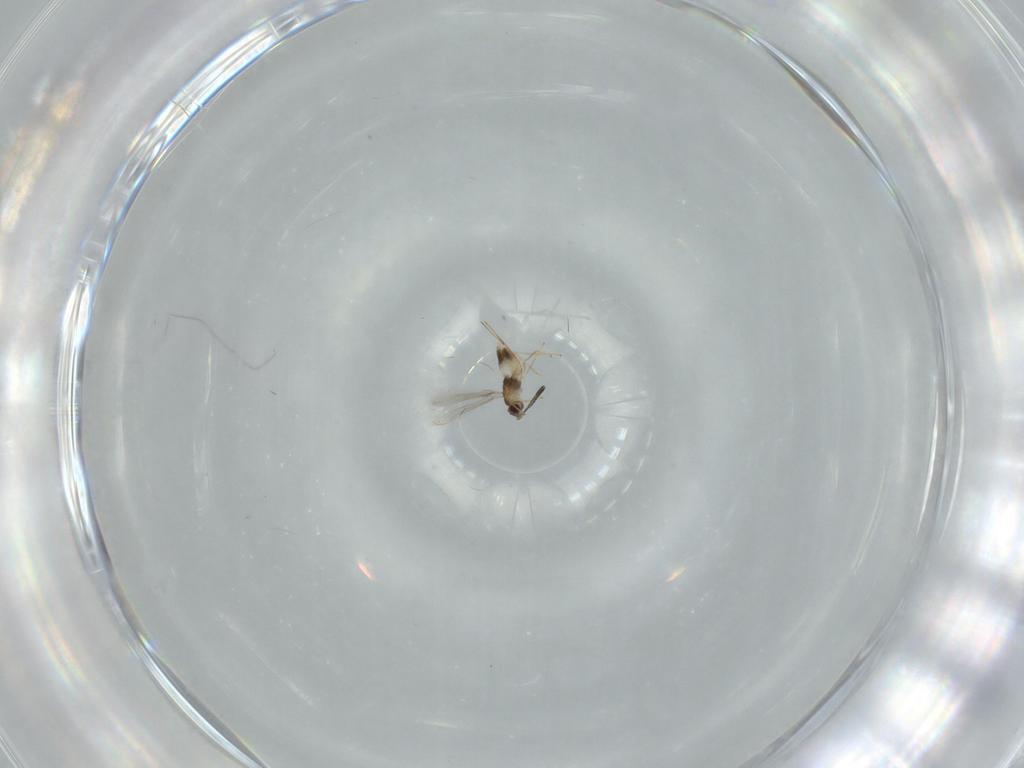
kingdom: Animalia
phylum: Arthropoda
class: Insecta
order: Hymenoptera
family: Mymaridae
